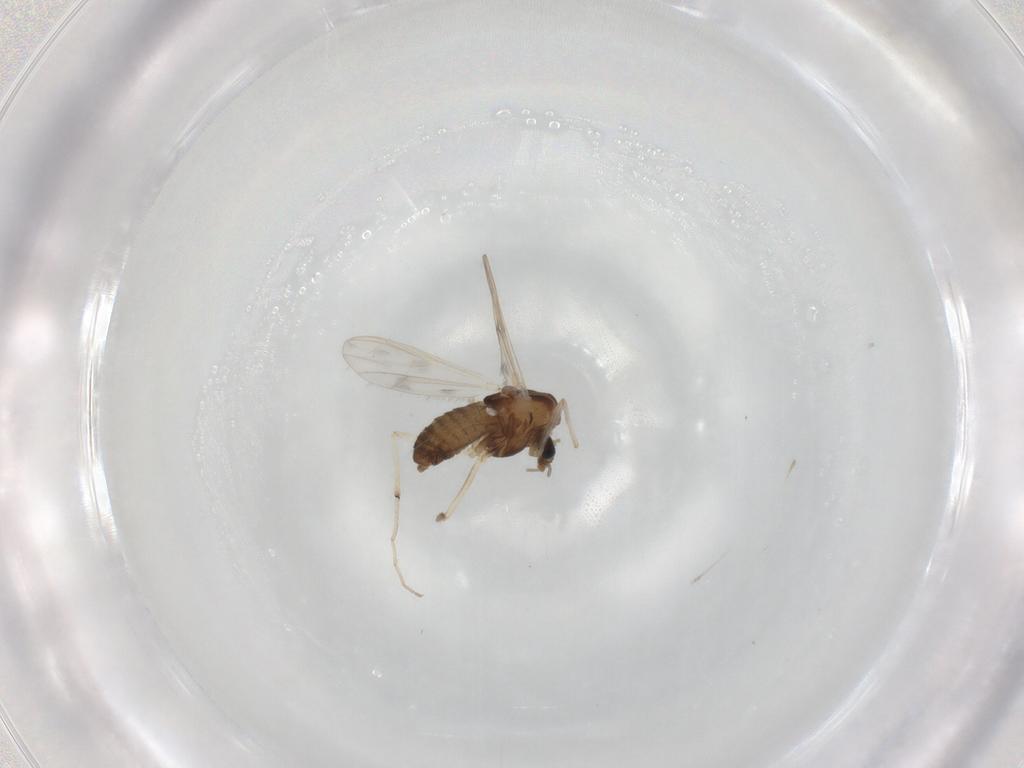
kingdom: Animalia
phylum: Arthropoda
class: Insecta
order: Diptera
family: Chironomidae
